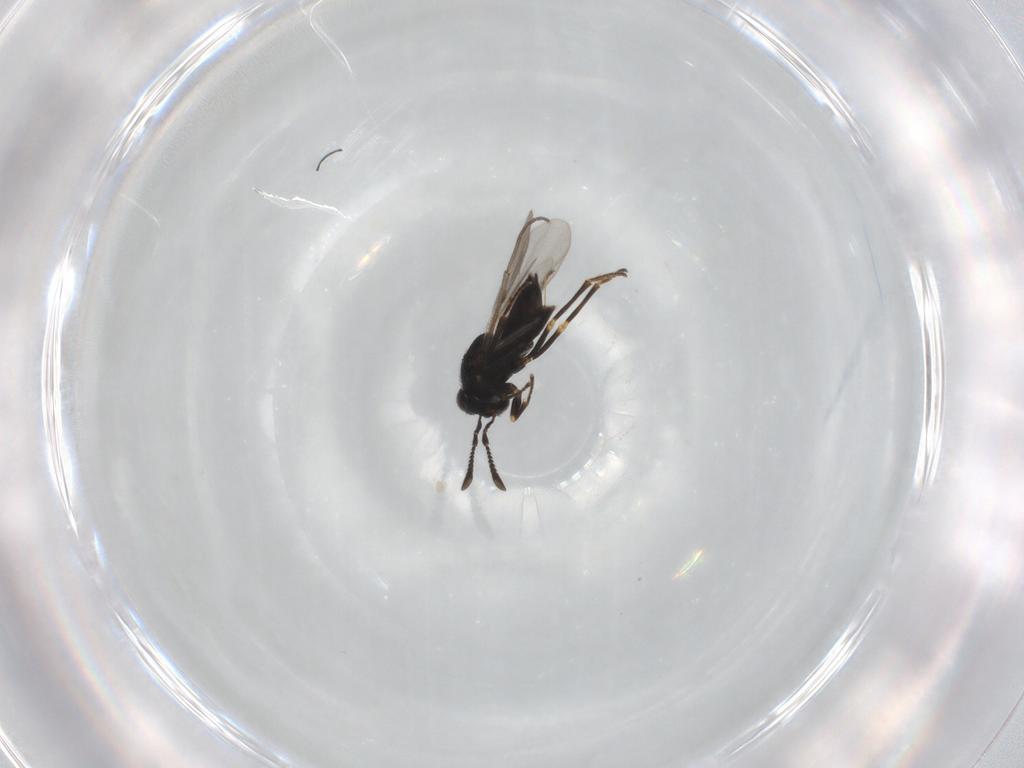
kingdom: Animalia
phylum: Arthropoda
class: Insecta
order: Hymenoptera
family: Encyrtidae
